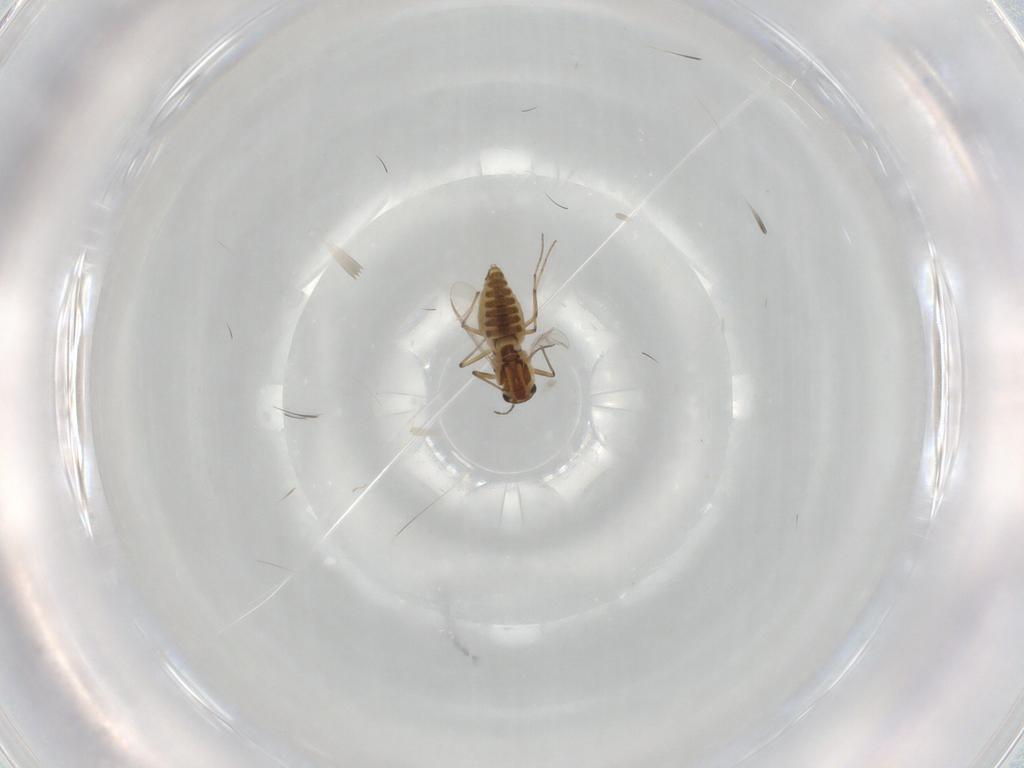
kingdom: Animalia
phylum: Arthropoda
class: Insecta
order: Diptera
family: Chironomidae
